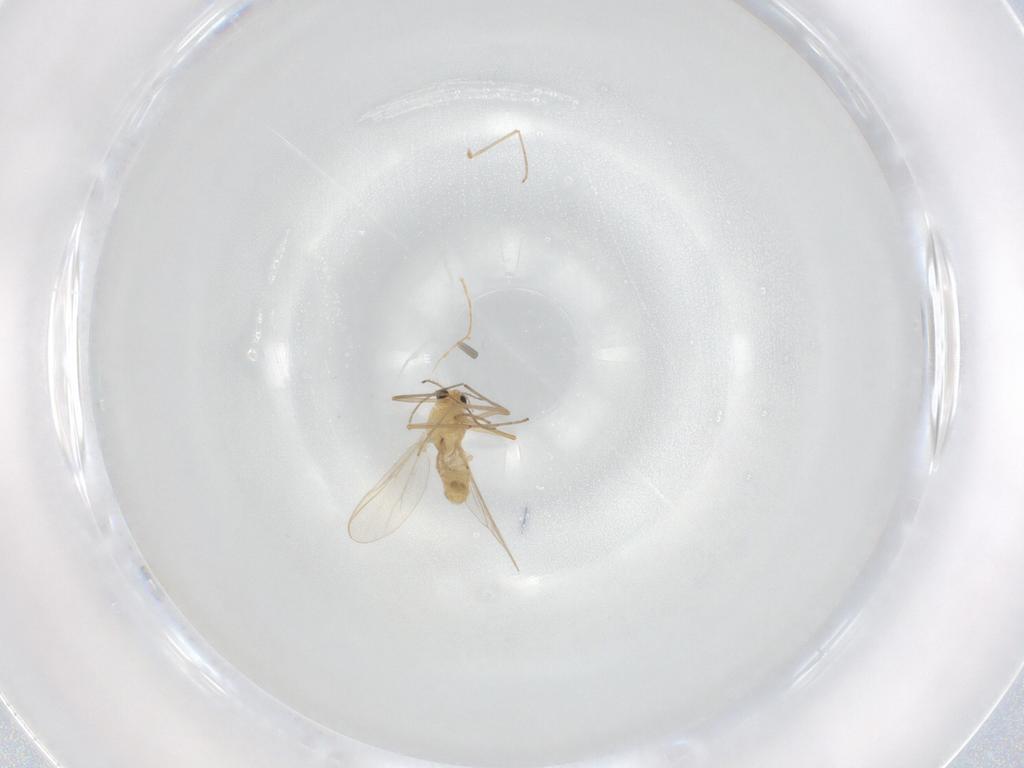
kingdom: Animalia
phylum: Arthropoda
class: Insecta
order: Diptera
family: Chironomidae
